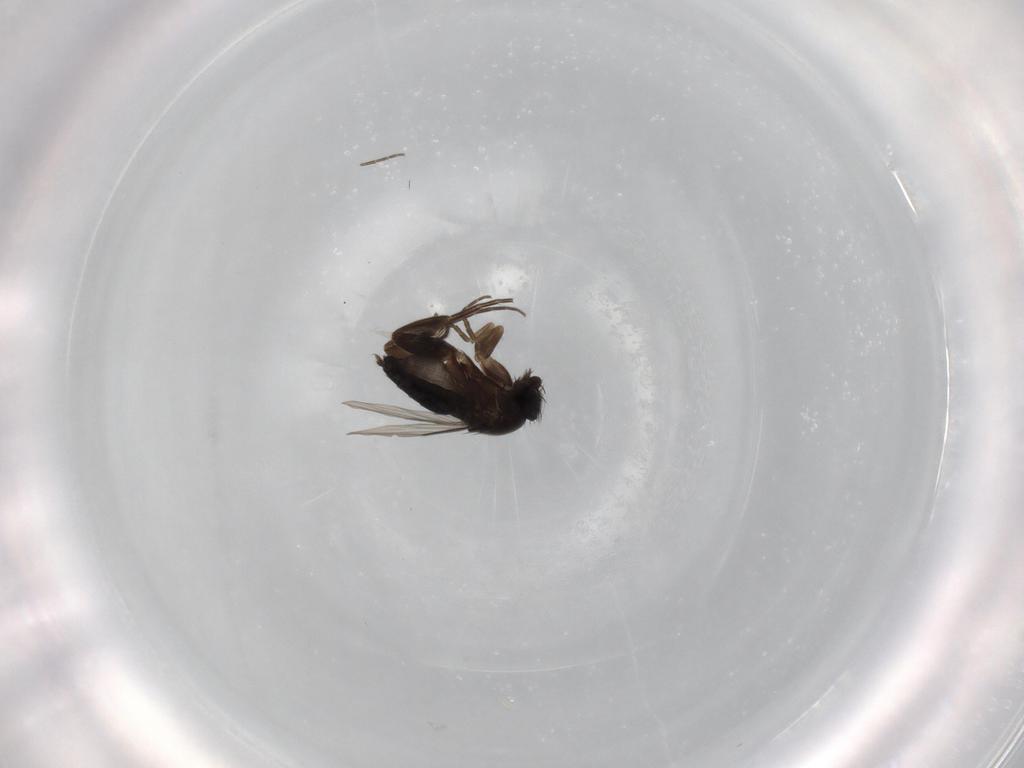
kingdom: Animalia
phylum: Arthropoda
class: Insecta
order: Diptera
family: Phoridae
